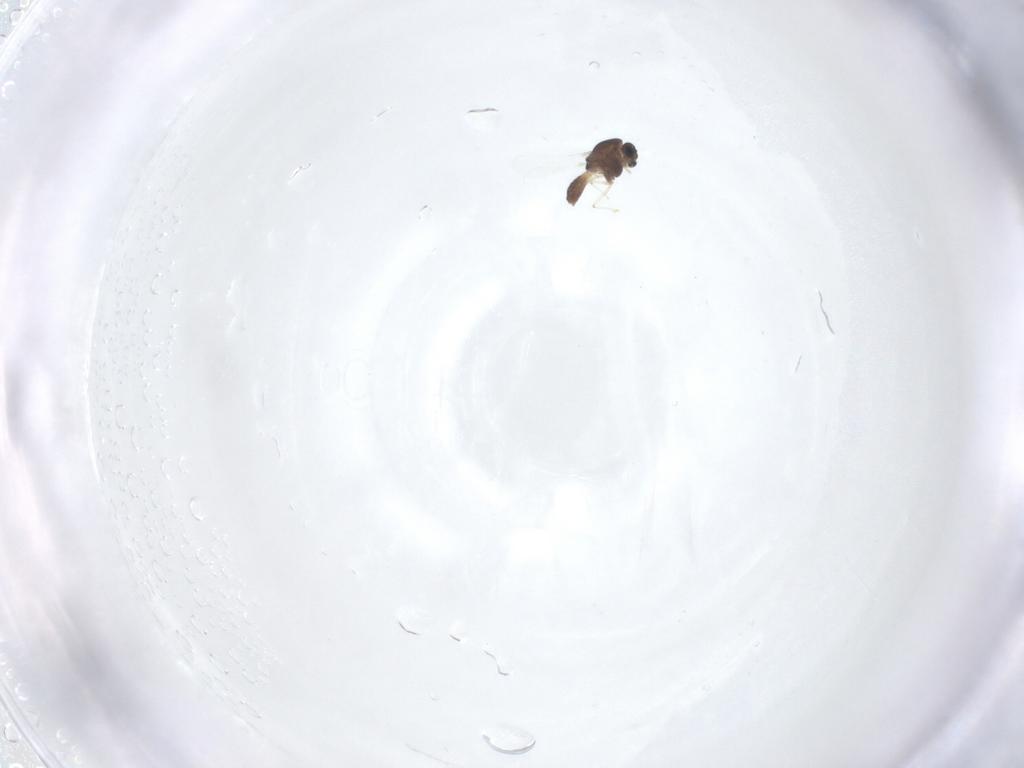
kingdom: Animalia
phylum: Arthropoda
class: Insecta
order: Diptera
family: Chironomidae
